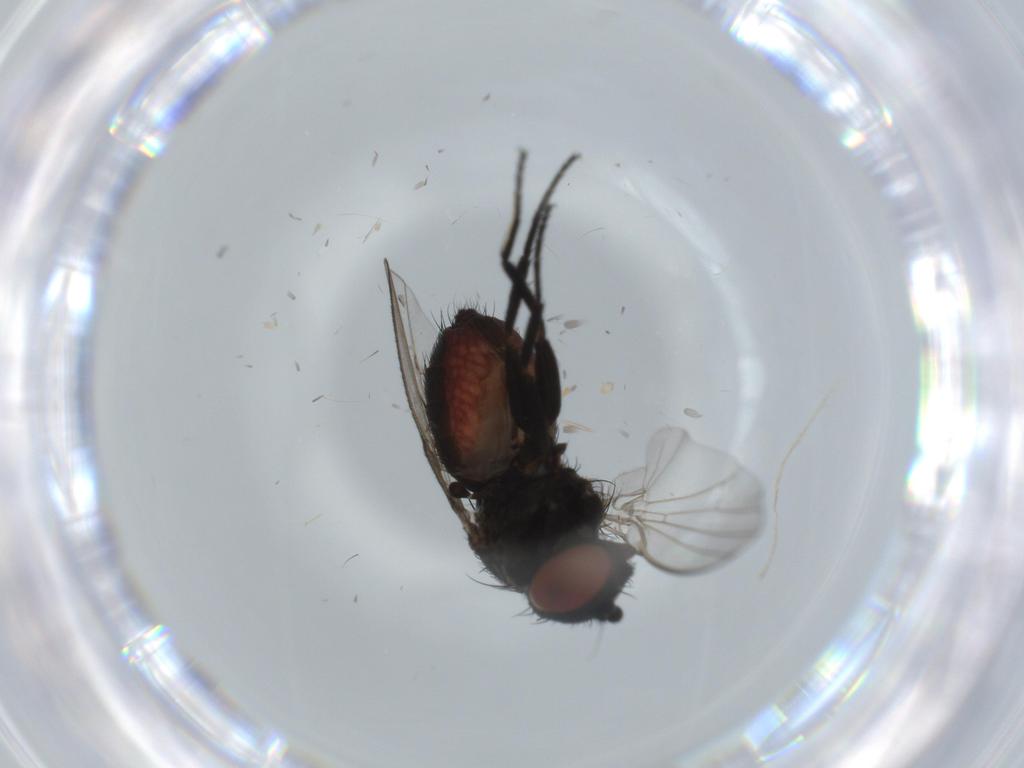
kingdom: Animalia
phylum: Arthropoda
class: Insecta
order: Diptera
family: Milichiidae
